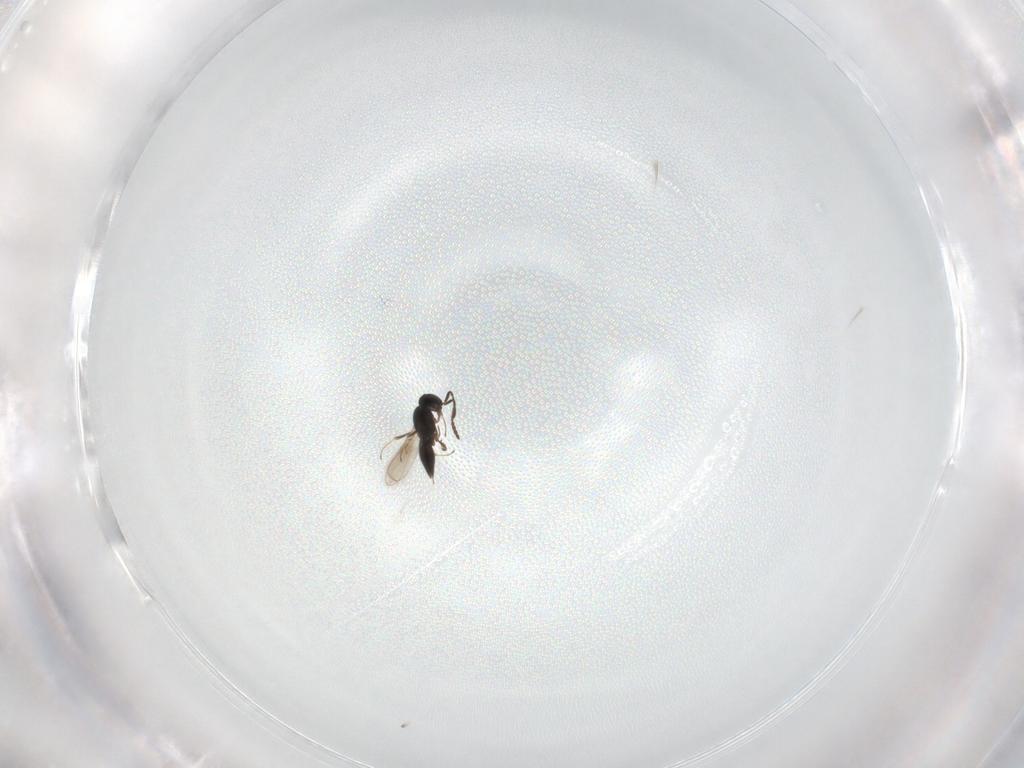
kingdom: Animalia
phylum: Arthropoda
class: Insecta
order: Hymenoptera
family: Scelionidae
